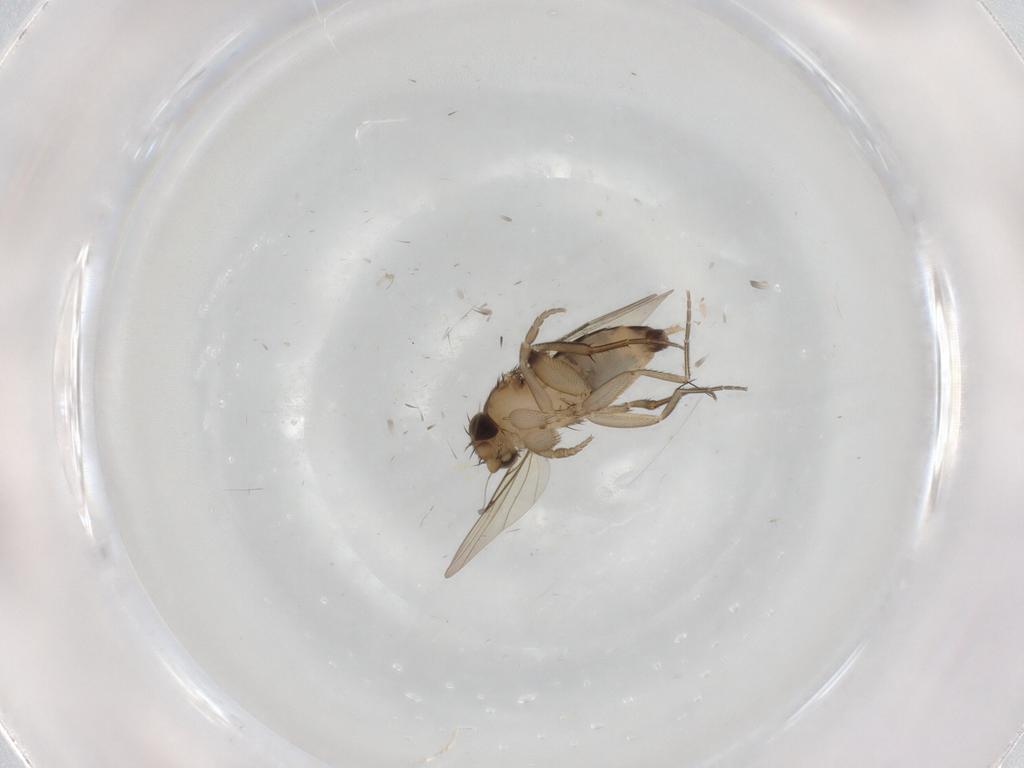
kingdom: Animalia
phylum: Arthropoda
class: Insecta
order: Diptera
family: Phoridae
